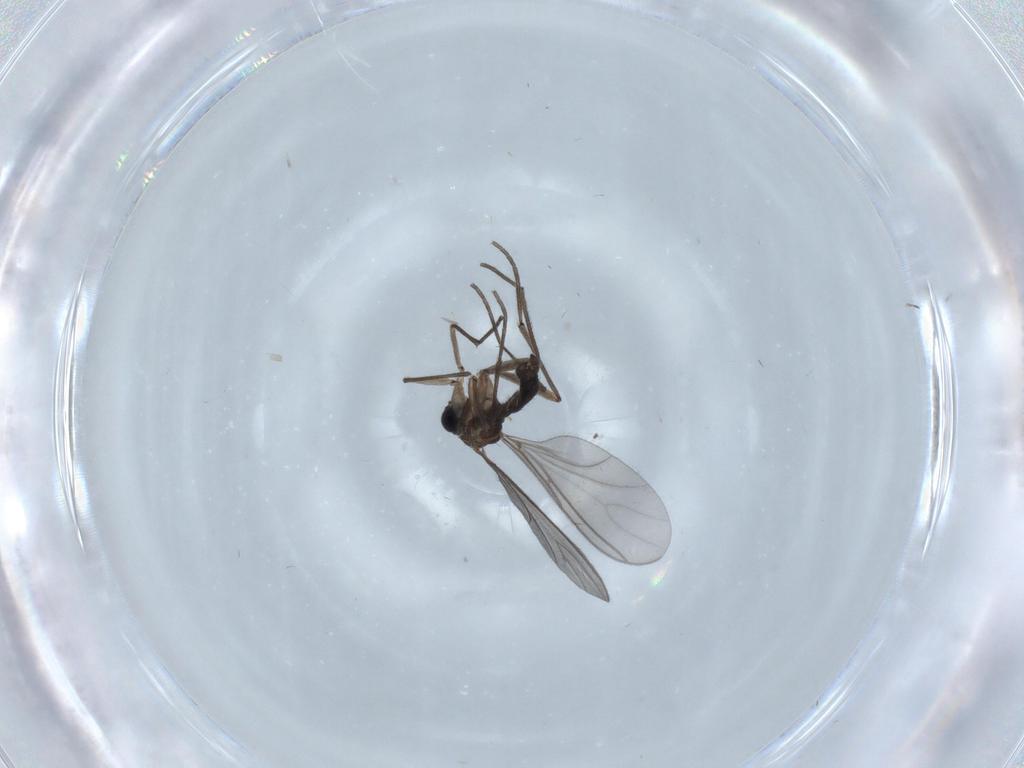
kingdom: Animalia
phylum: Arthropoda
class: Insecta
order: Diptera
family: Sciaridae
